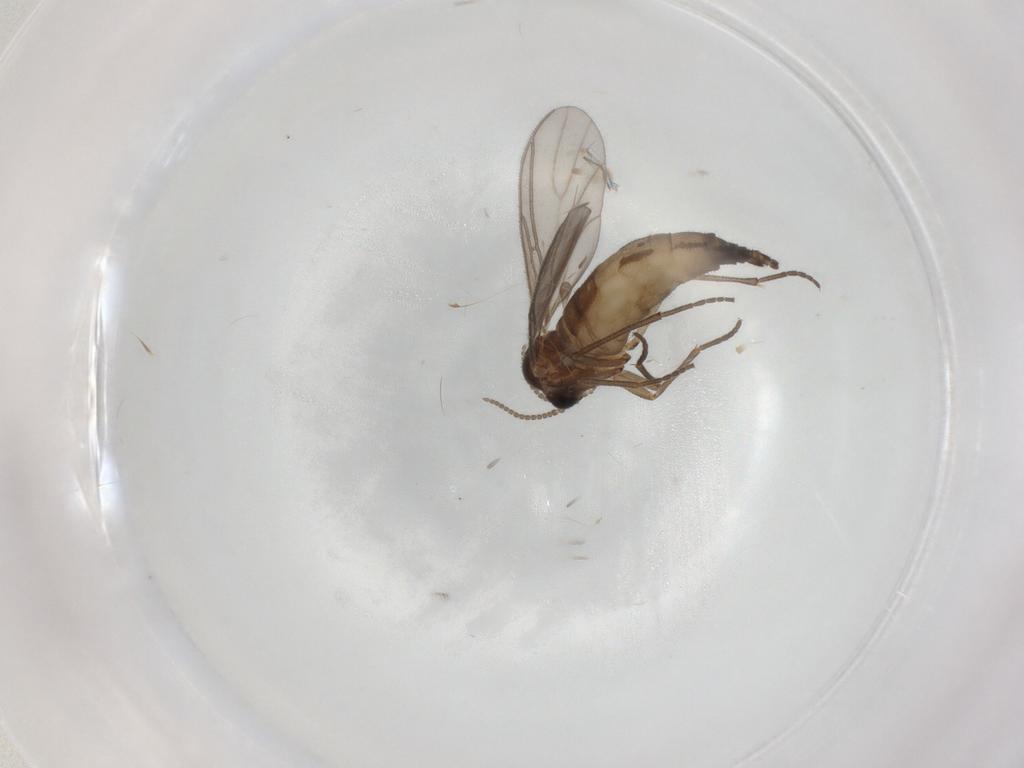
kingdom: Animalia
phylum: Arthropoda
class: Insecta
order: Diptera
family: Sciaridae
